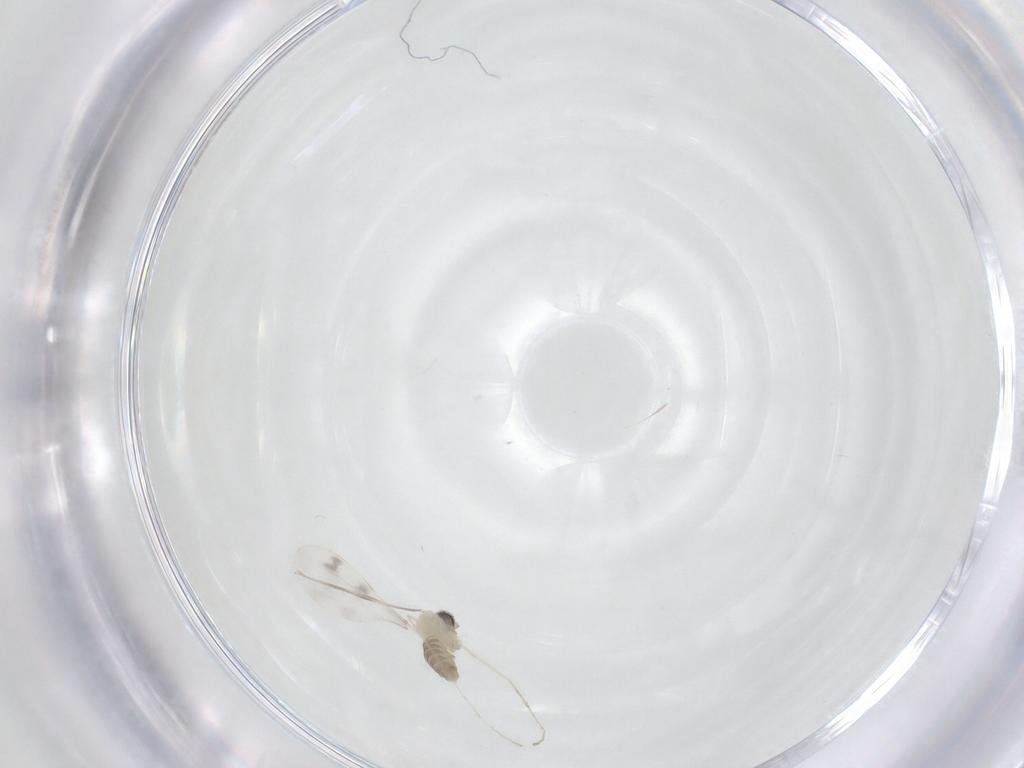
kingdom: Animalia
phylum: Arthropoda
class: Insecta
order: Diptera
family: Cecidomyiidae
